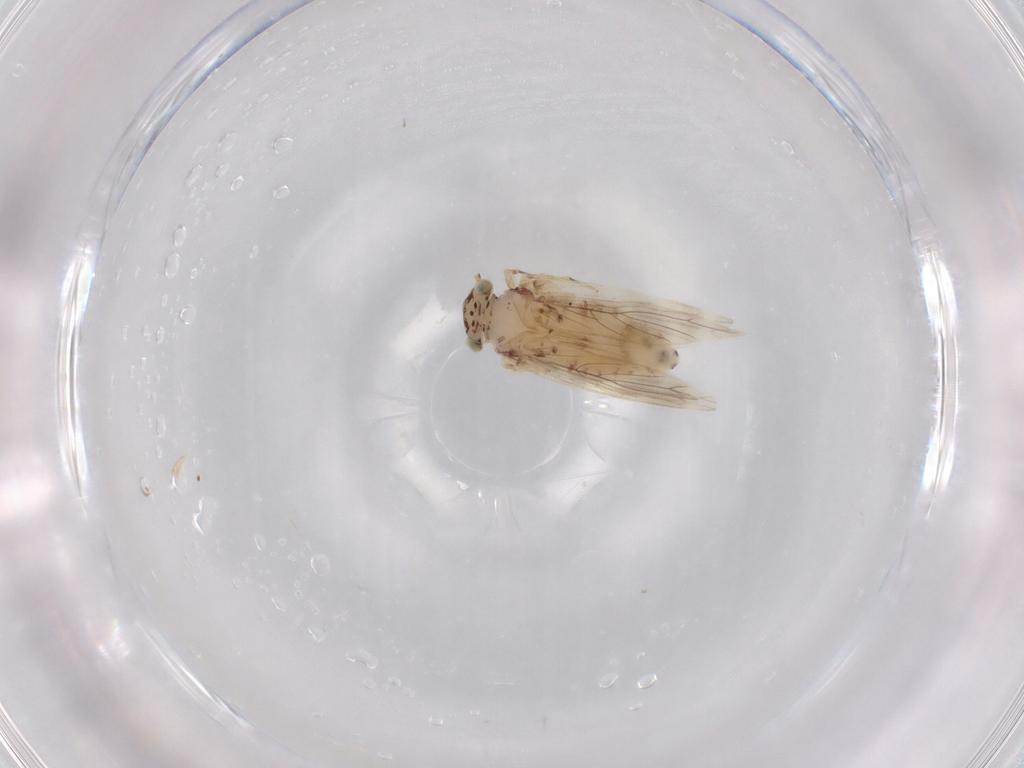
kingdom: Animalia
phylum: Arthropoda
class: Insecta
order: Psocodea
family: Lepidopsocidae
